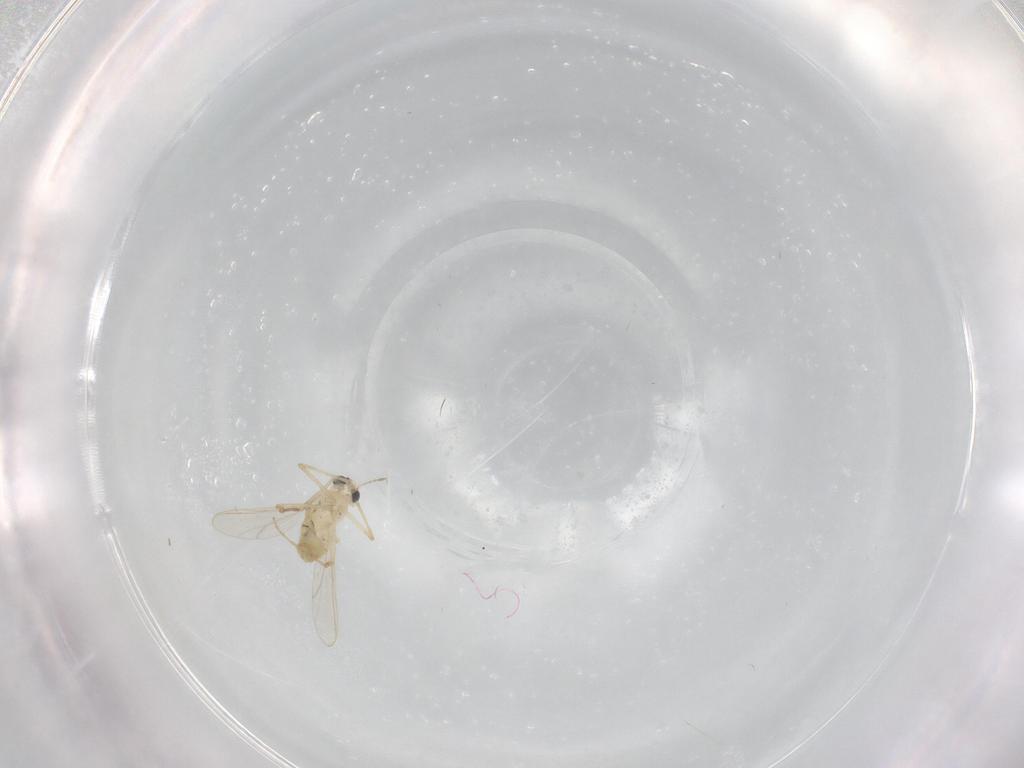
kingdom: Animalia
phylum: Arthropoda
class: Insecta
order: Diptera
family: Chironomidae
